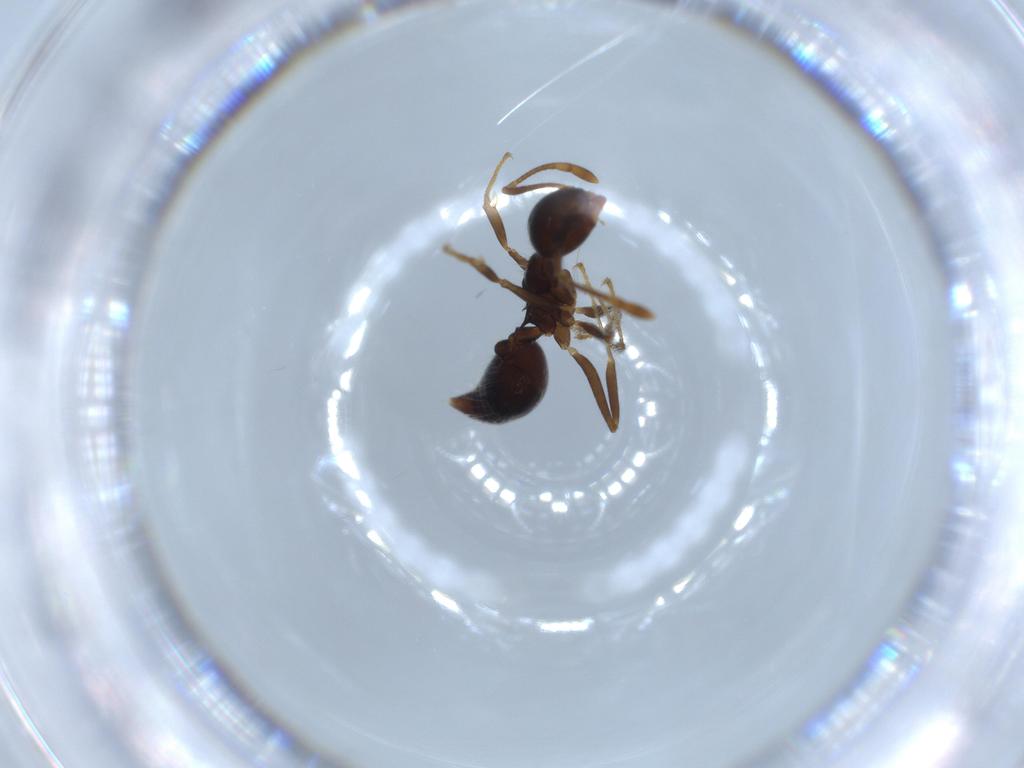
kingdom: Animalia
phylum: Arthropoda
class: Insecta
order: Hymenoptera
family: Formicidae
